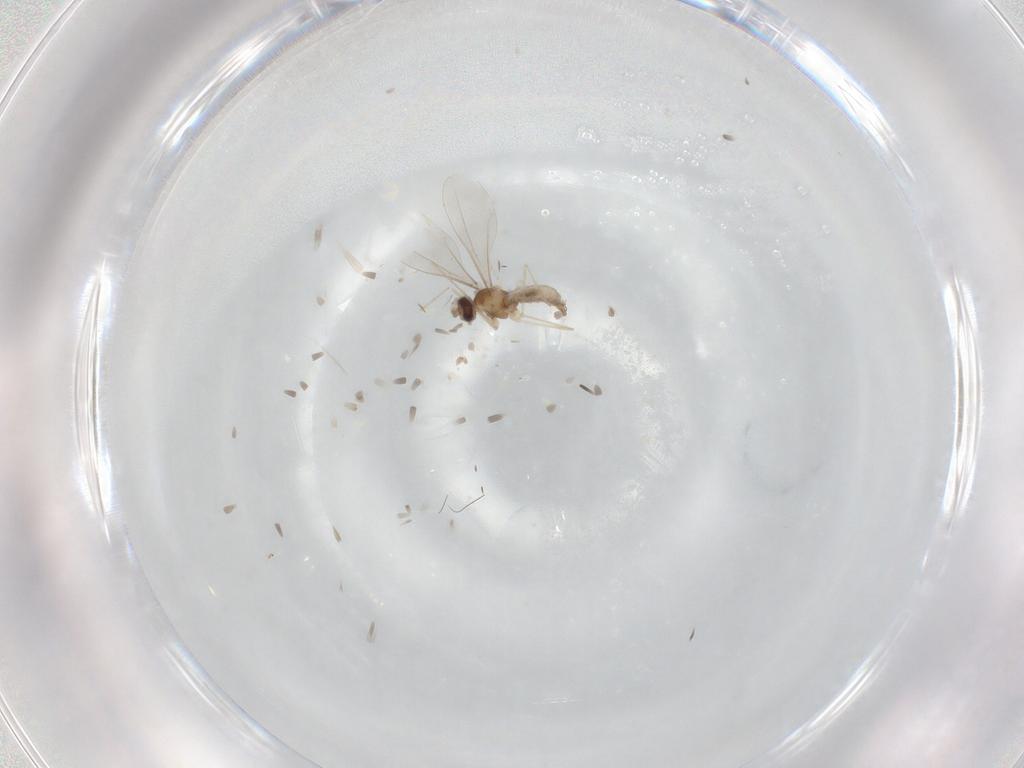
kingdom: Animalia
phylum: Arthropoda
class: Insecta
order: Diptera
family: Cecidomyiidae
